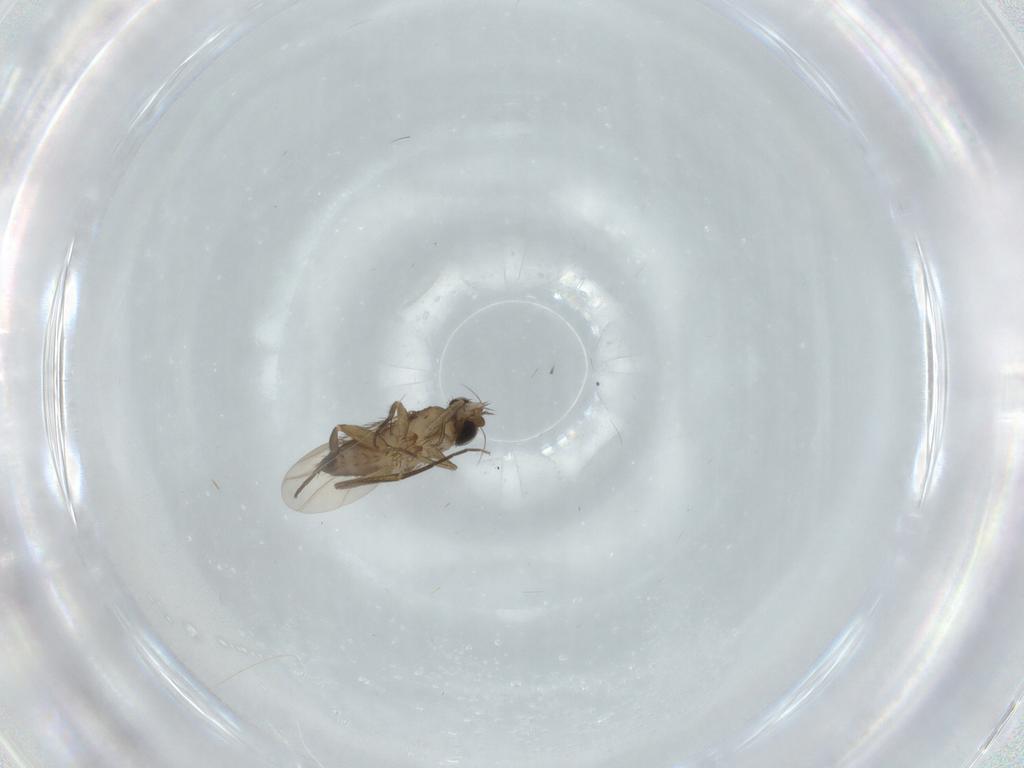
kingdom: Animalia
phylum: Arthropoda
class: Insecta
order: Diptera
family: Phoridae
